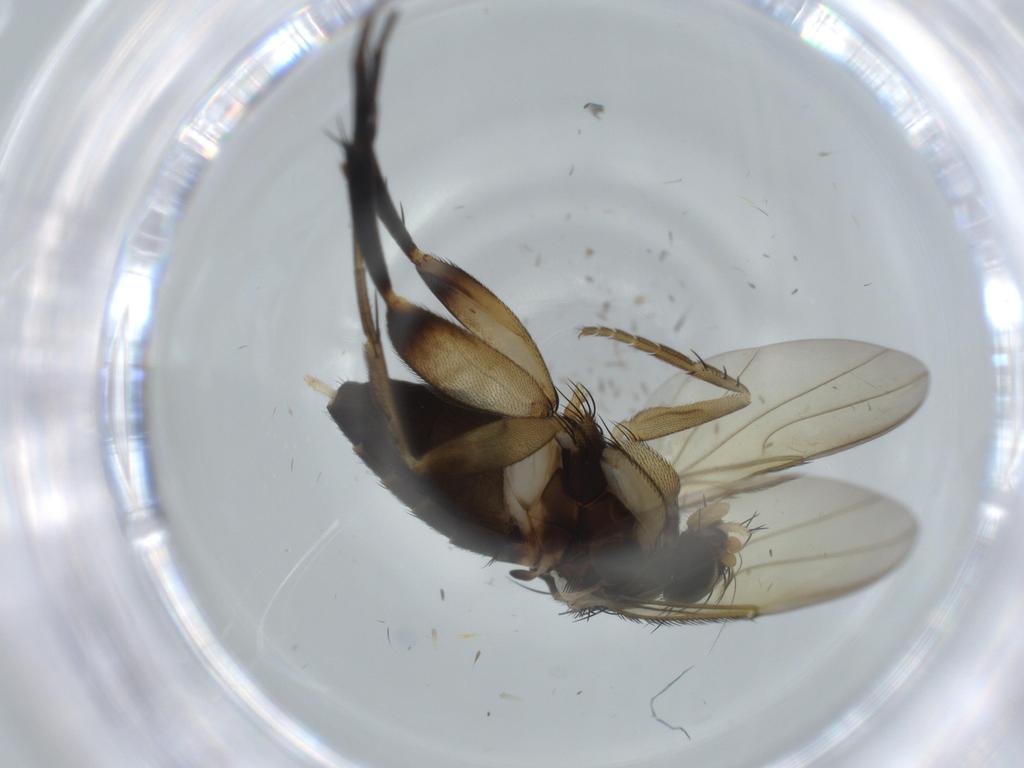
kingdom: Animalia
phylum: Arthropoda
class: Insecta
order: Diptera
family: Phoridae
